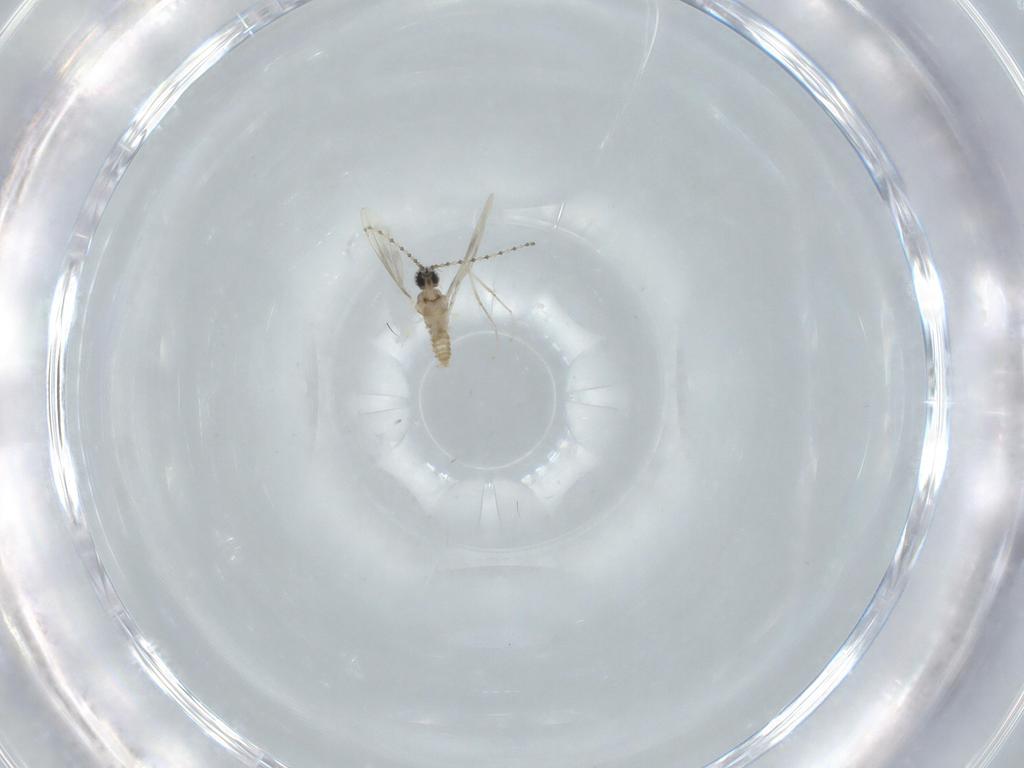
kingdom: Animalia
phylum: Arthropoda
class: Insecta
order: Diptera
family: Cecidomyiidae
